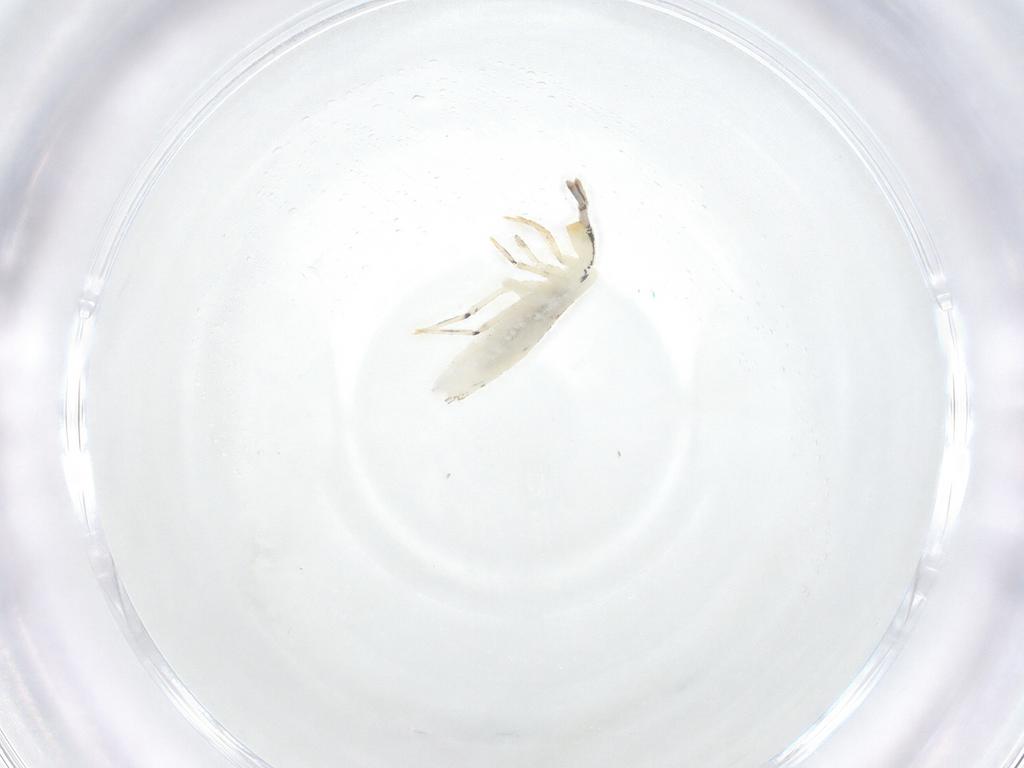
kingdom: Animalia
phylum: Arthropoda
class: Collembola
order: Entomobryomorpha
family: Entomobryidae
